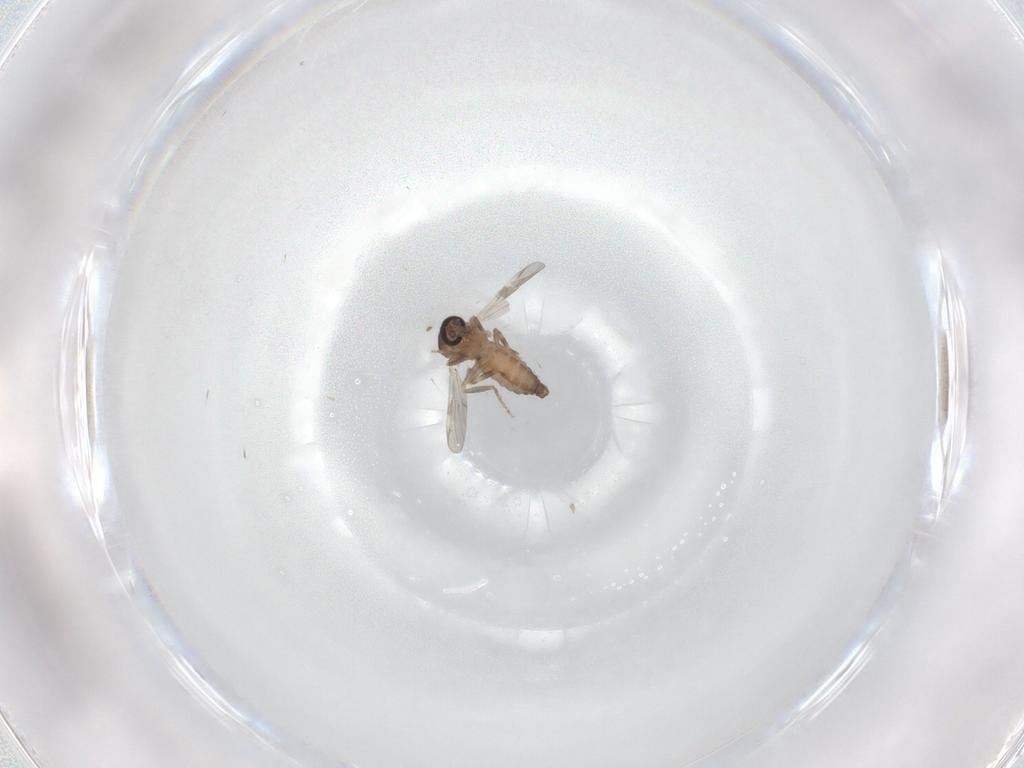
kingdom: Animalia
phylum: Arthropoda
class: Insecta
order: Diptera
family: Ceratopogonidae
